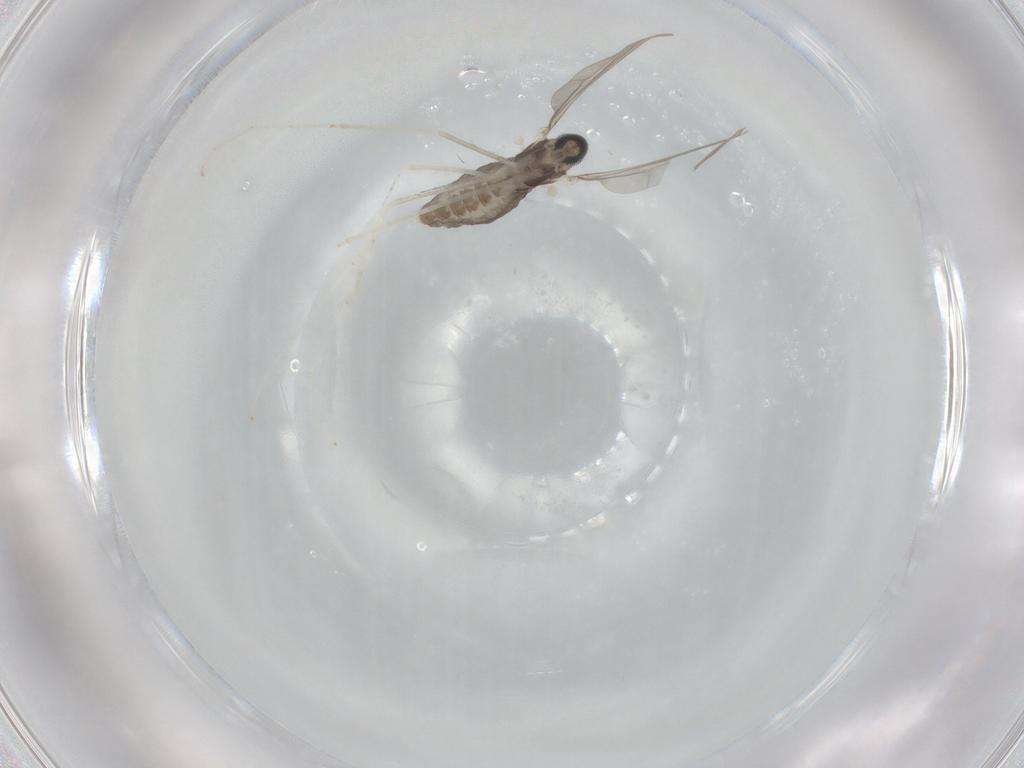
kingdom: Animalia
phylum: Arthropoda
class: Insecta
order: Diptera
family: Cecidomyiidae
